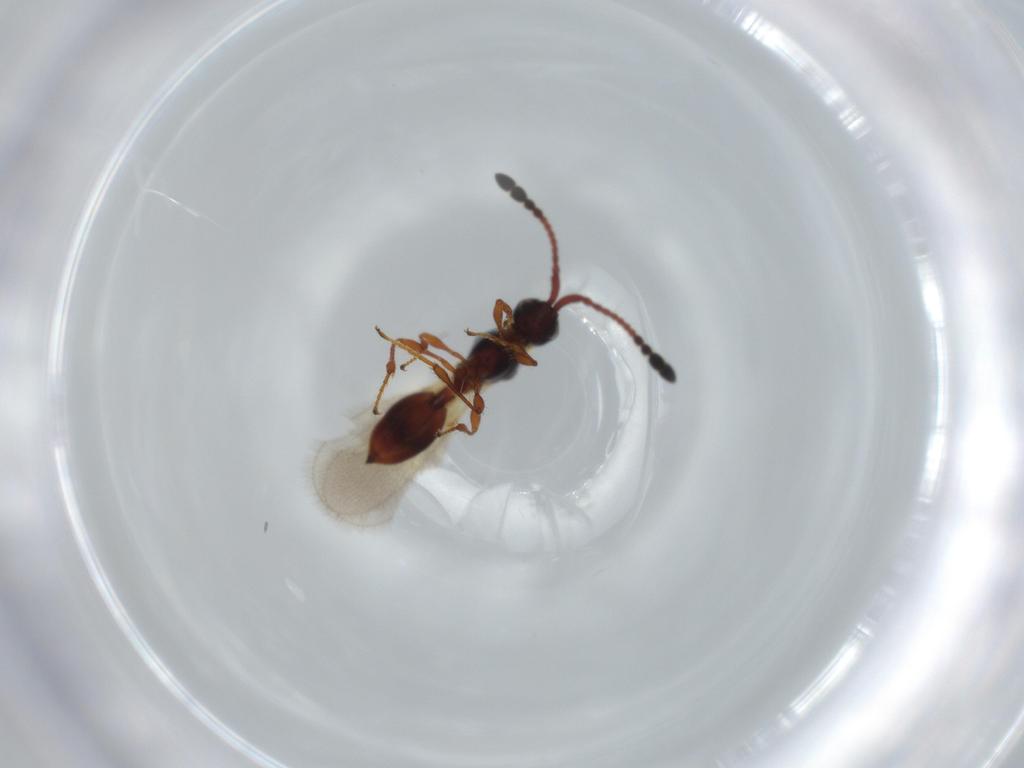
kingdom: Animalia
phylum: Arthropoda
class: Insecta
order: Hymenoptera
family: Diapriidae
